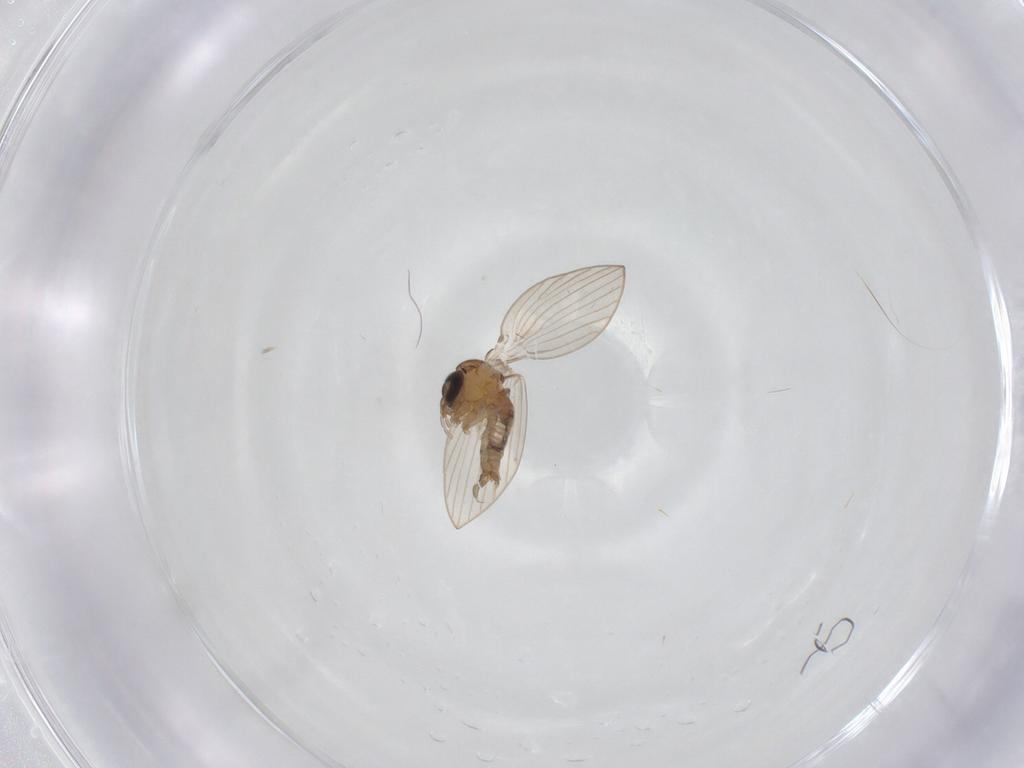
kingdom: Animalia
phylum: Arthropoda
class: Insecta
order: Diptera
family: Psychodidae
